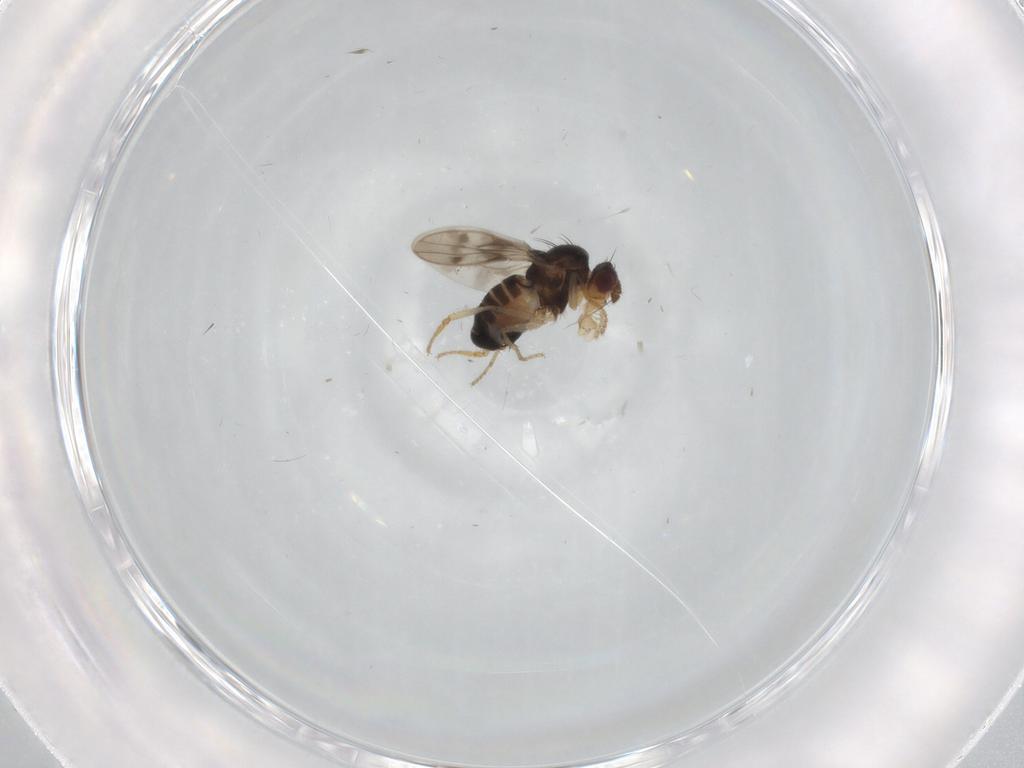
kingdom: Animalia
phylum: Arthropoda
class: Insecta
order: Diptera
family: Sphaeroceridae
